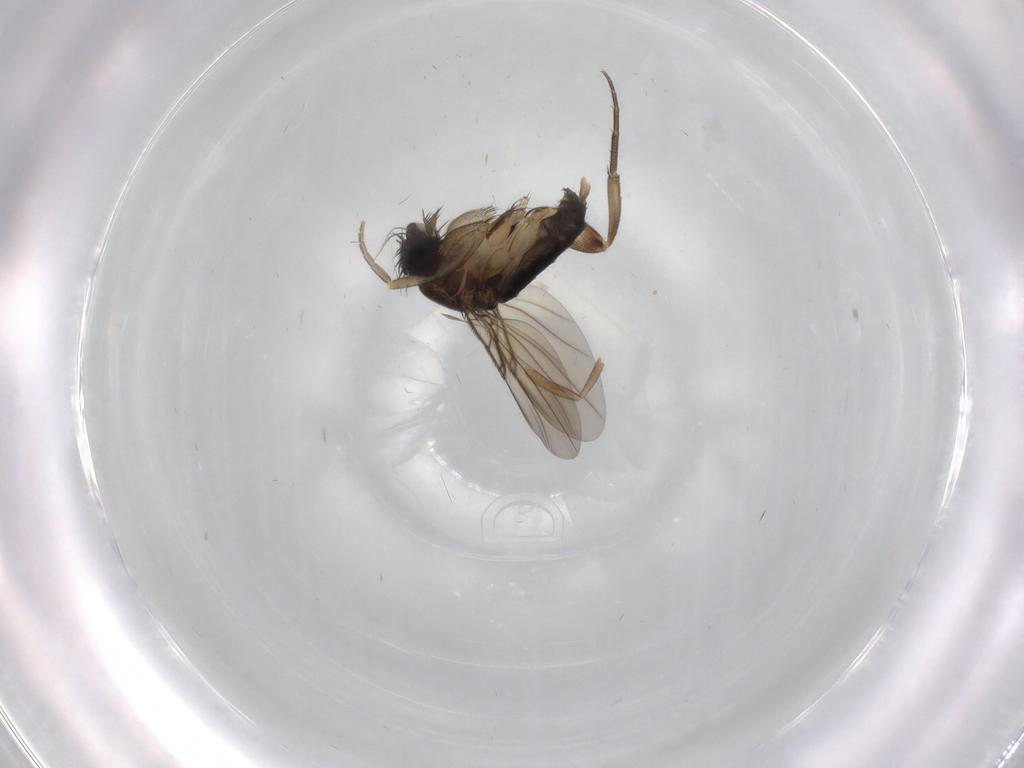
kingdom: Animalia
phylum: Arthropoda
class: Insecta
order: Diptera
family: Phoridae
